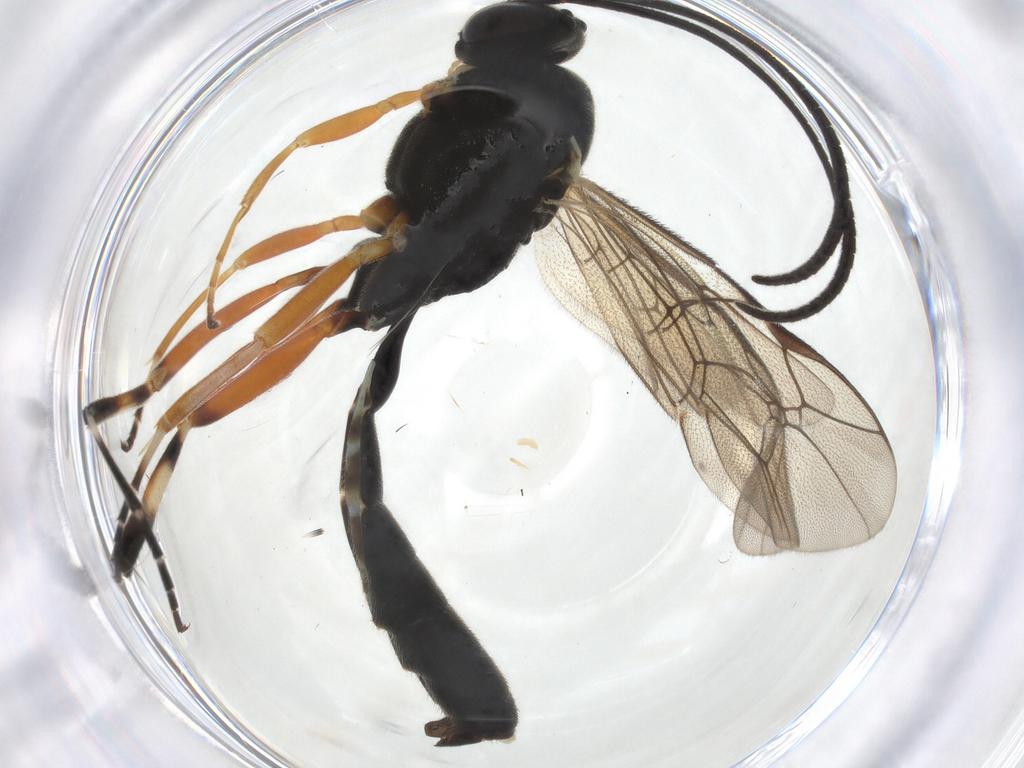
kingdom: Animalia
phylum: Arthropoda
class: Insecta
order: Hymenoptera
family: Ichneumonidae
